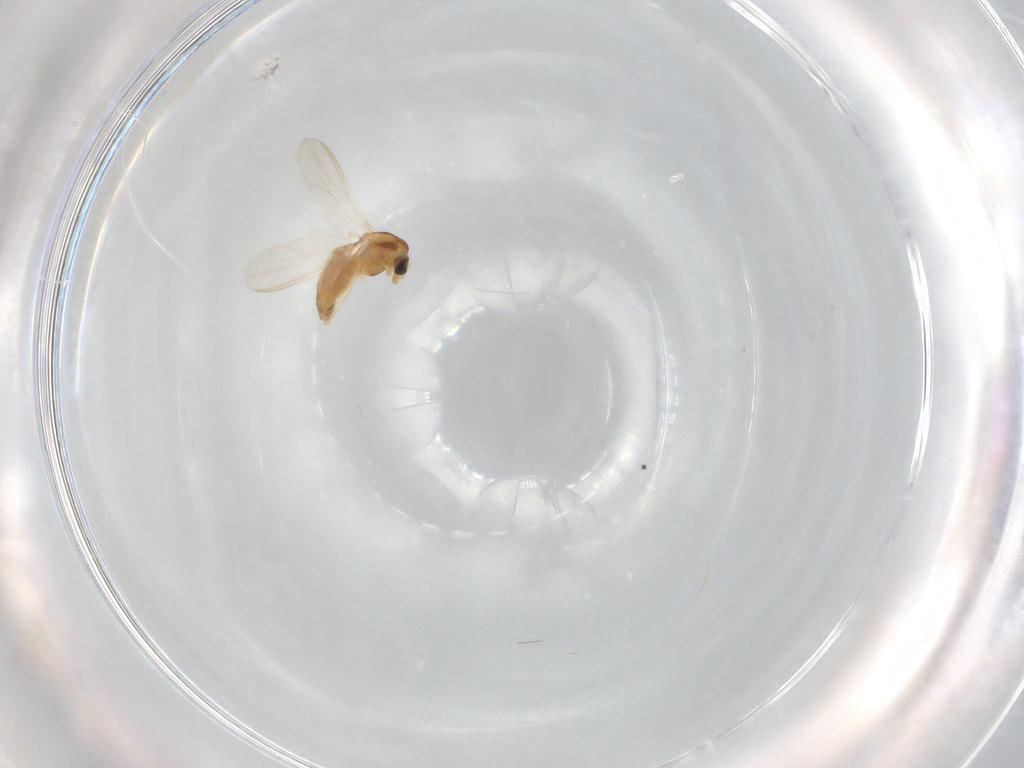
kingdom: Animalia
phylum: Arthropoda
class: Insecta
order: Diptera
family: Chironomidae
